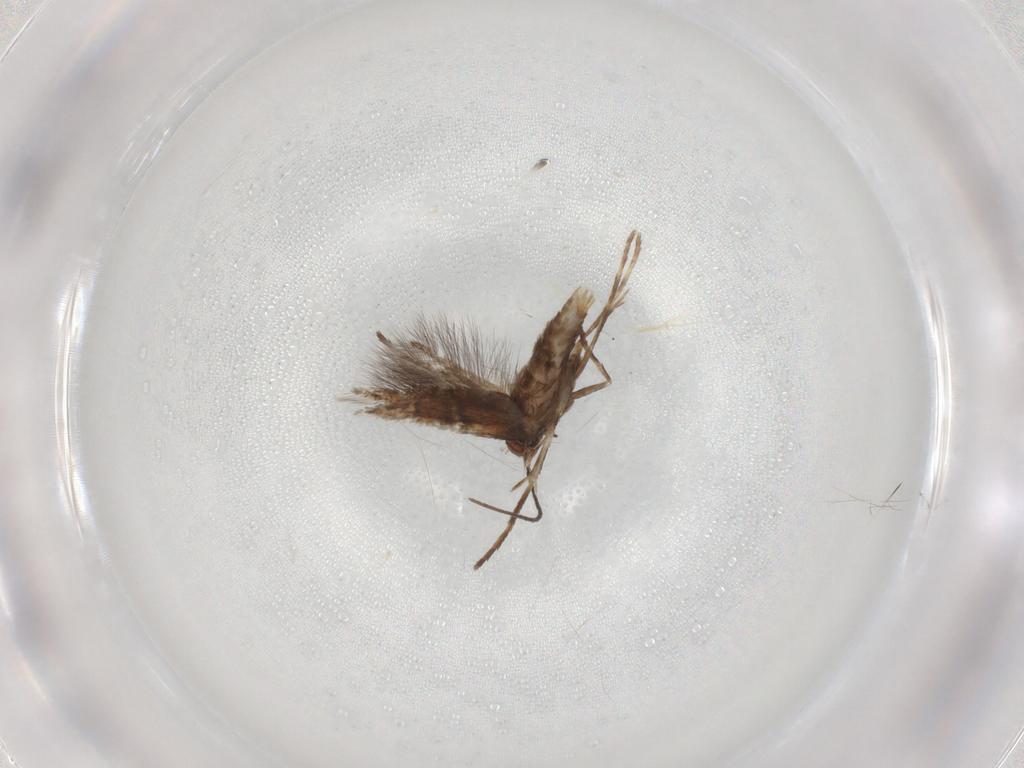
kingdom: Animalia
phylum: Arthropoda
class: Insecta
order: Lepidoptera
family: Gracillariidae
